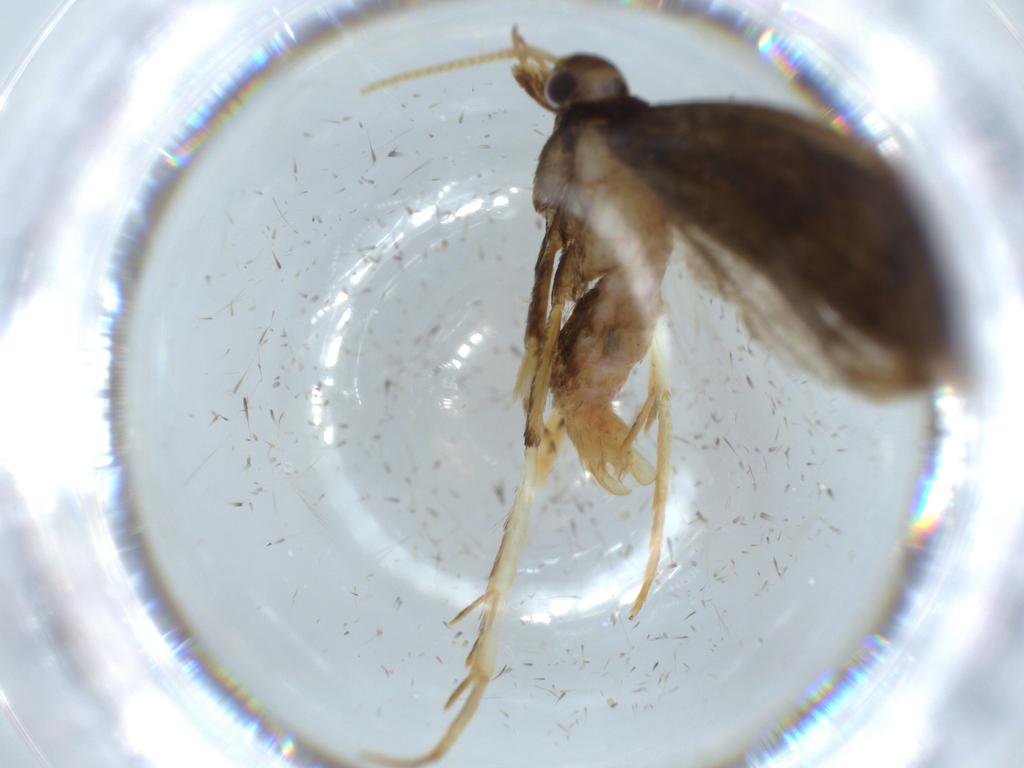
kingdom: Animalia
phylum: Arthropoda
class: Insecta
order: Lepidoptera
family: Lecithoceridae
